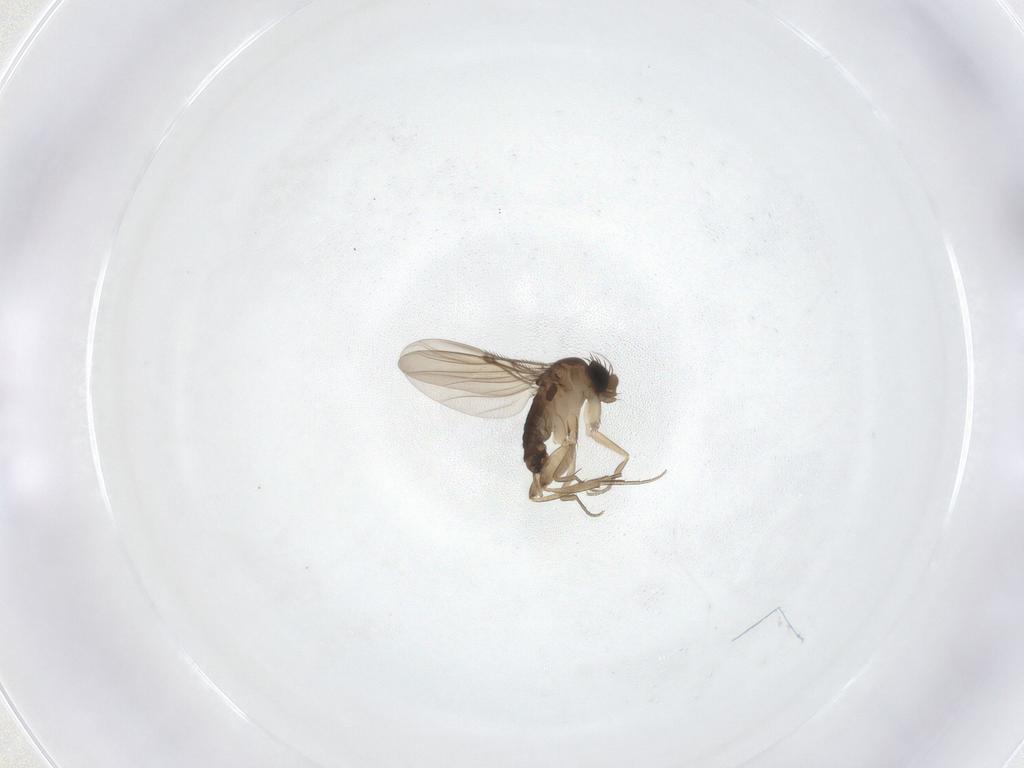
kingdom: Animalia
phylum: Arthropoda
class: Insecta
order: Diptera
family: Phoridae
